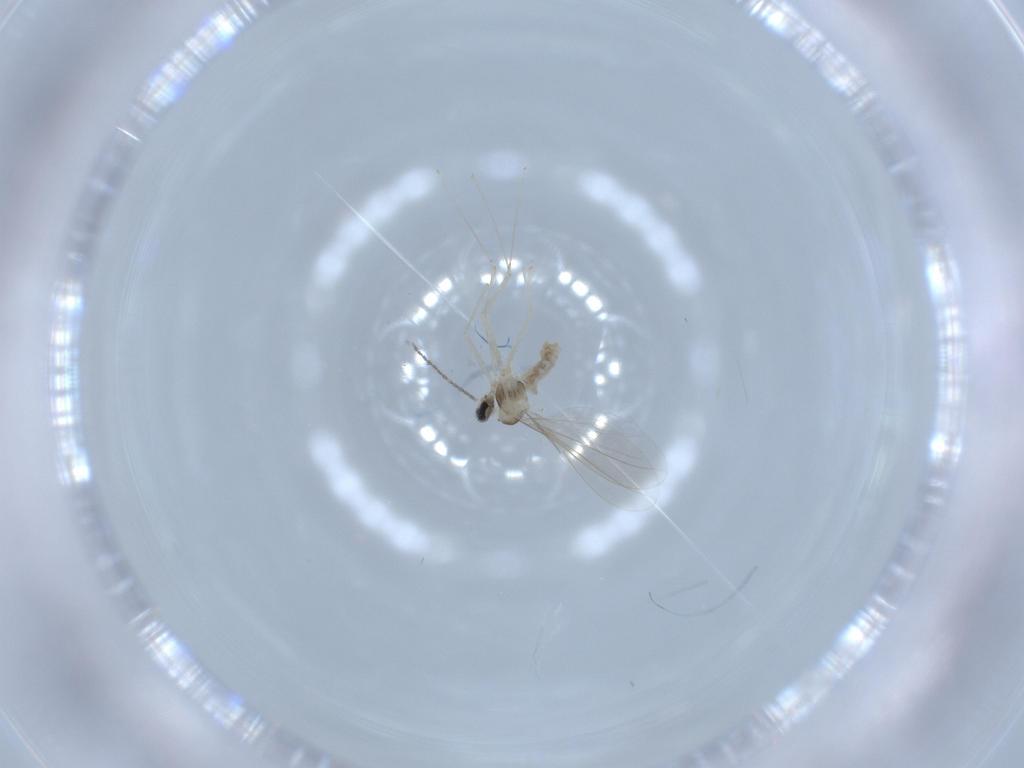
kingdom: Animalia
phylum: Arthropoda
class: Insecta
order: Diptera
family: Cecidomyiidae
